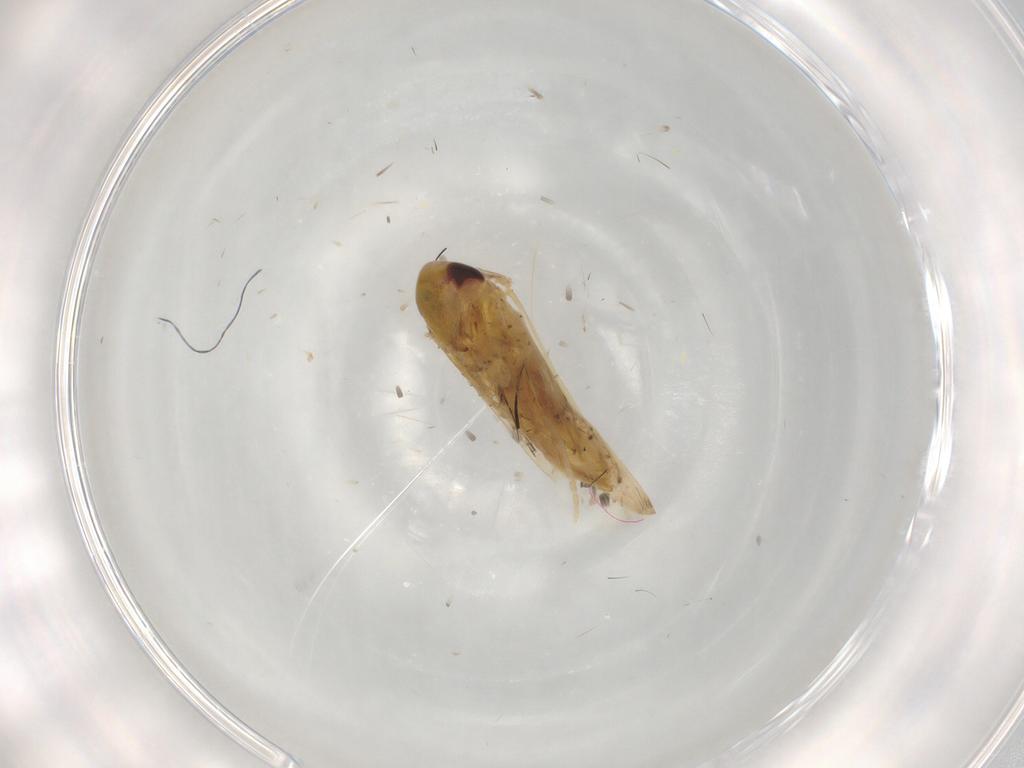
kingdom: Animalia
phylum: Arthropoda
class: Insecta
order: Hemiptera
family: Cicadellidae
